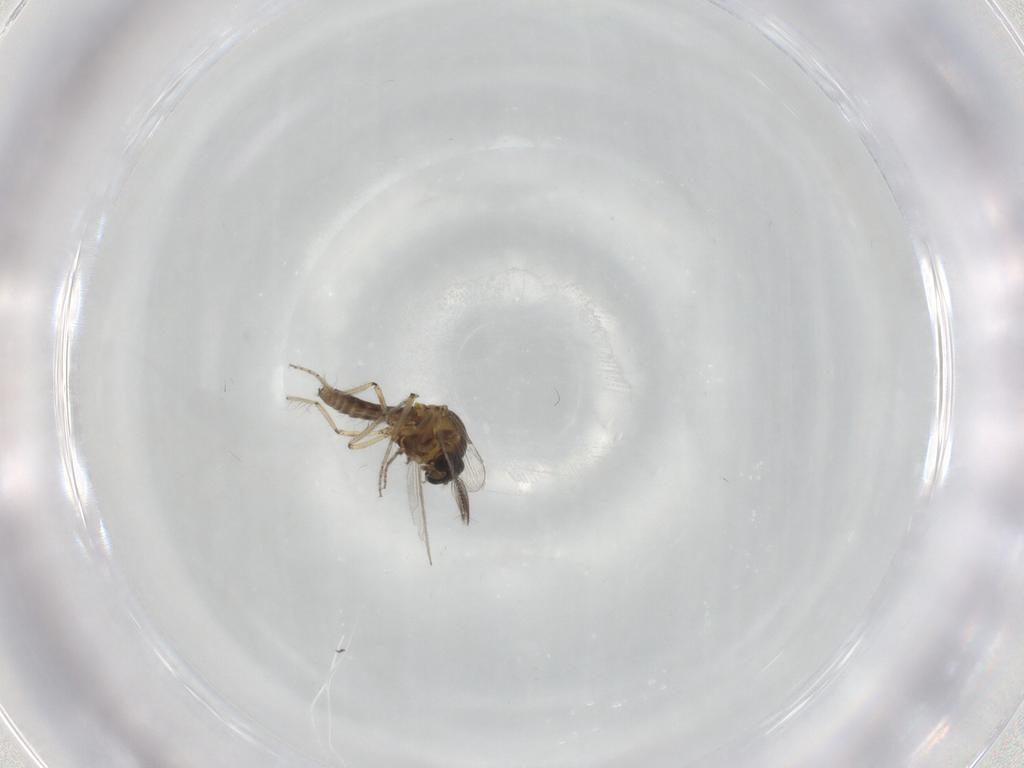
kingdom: Animalia
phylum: Arthropoda
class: Insecta
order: Diptera
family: Ceratopogonidae
